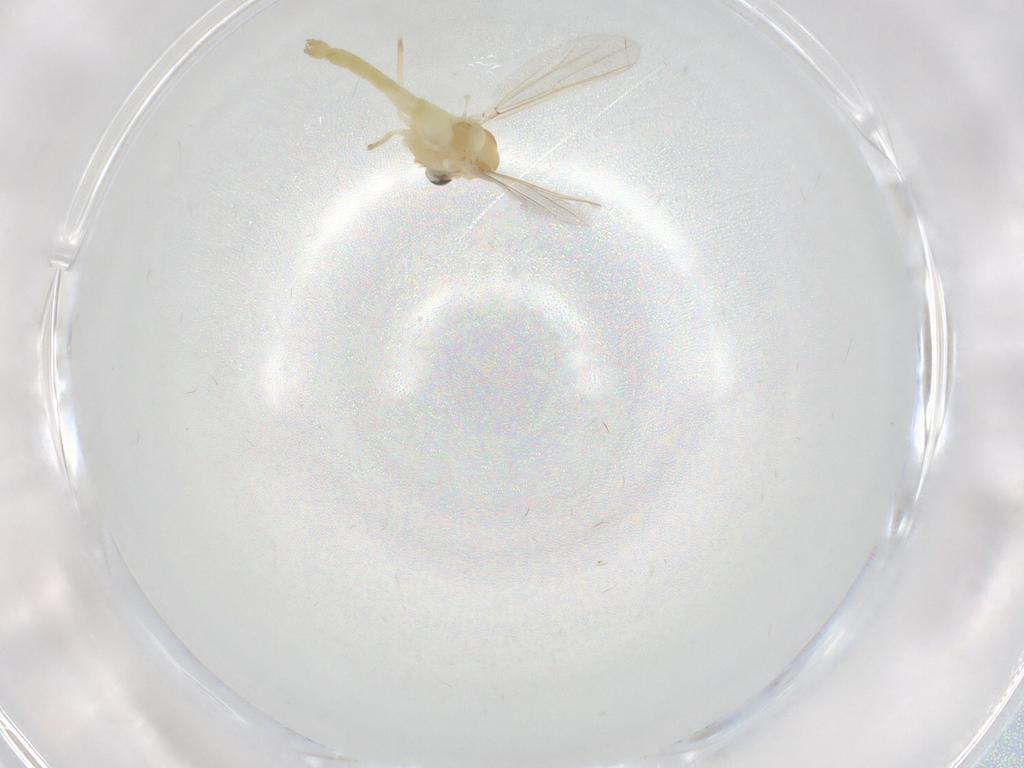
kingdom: Animalia
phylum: Arthropoda
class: Insecta
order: Diptera
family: Chironomidae
